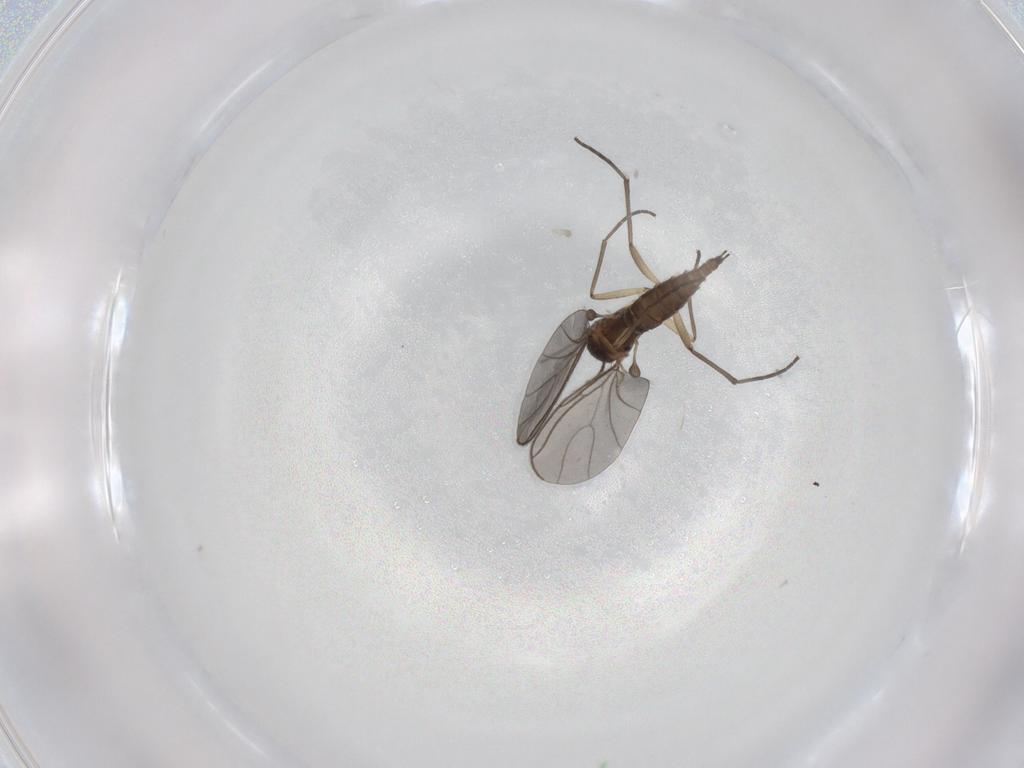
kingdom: Animalia
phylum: Arthropoda
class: Insecta
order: Diptera
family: Sciaridae
